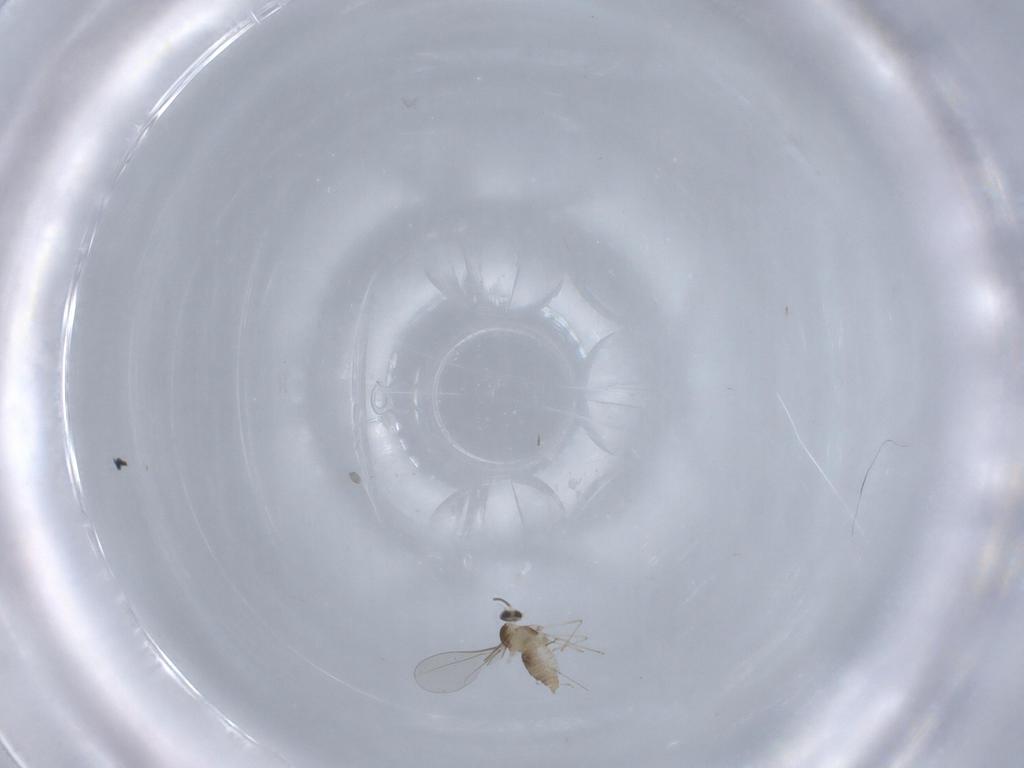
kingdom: Animalia
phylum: Arthropoda
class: Insecta
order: Diptera
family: Cecidomyiidae
